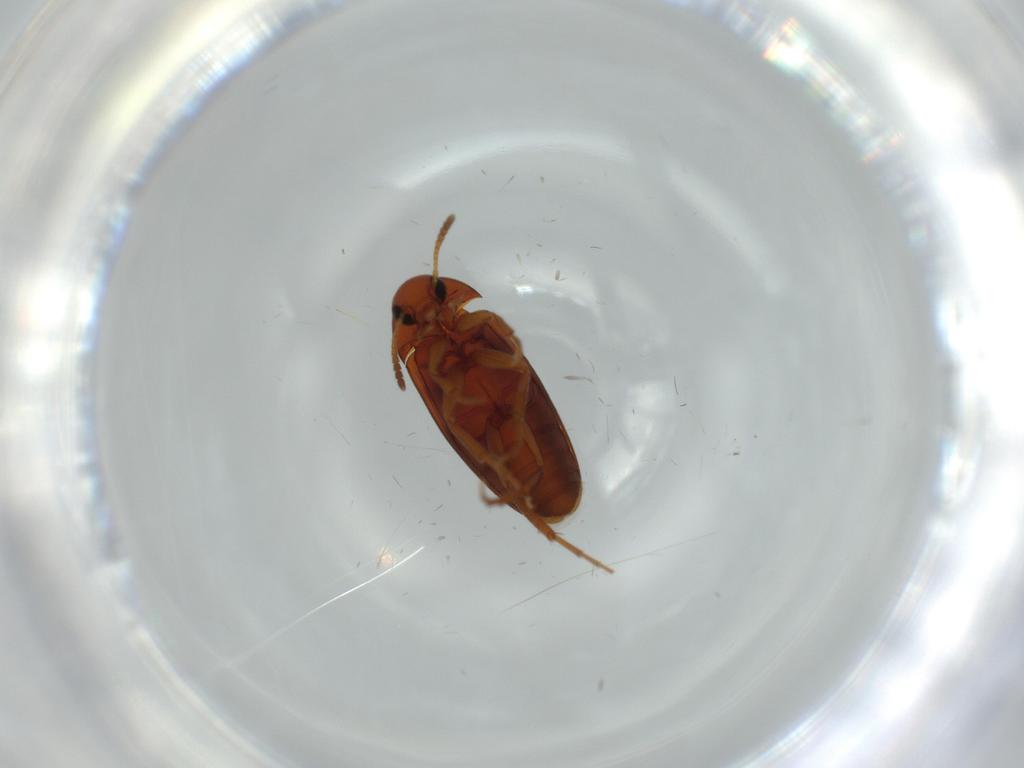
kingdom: Animalia
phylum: Arthropoda
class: Insecta
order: Coleoptera
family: Scraptiidae
